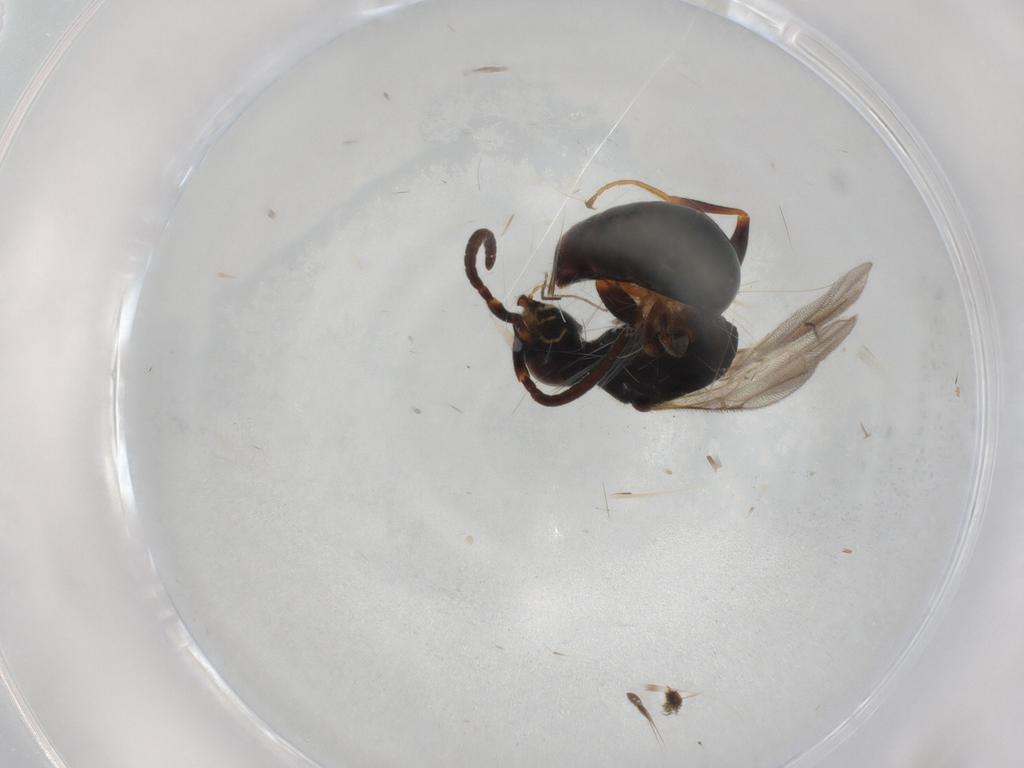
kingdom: Animalia
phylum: Arthropoda
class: Insecta
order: Hymenoptera
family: Bethylidae
